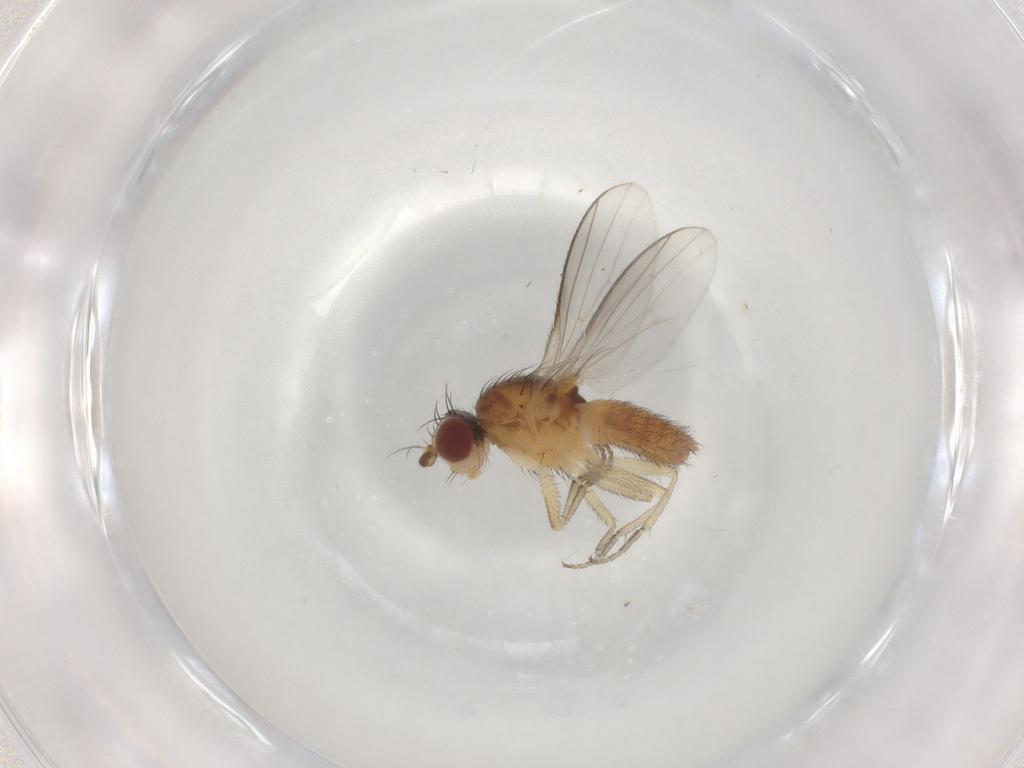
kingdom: Animalia
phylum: Arthropoda
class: Insecta
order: Diptera
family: Heleomyzidae
